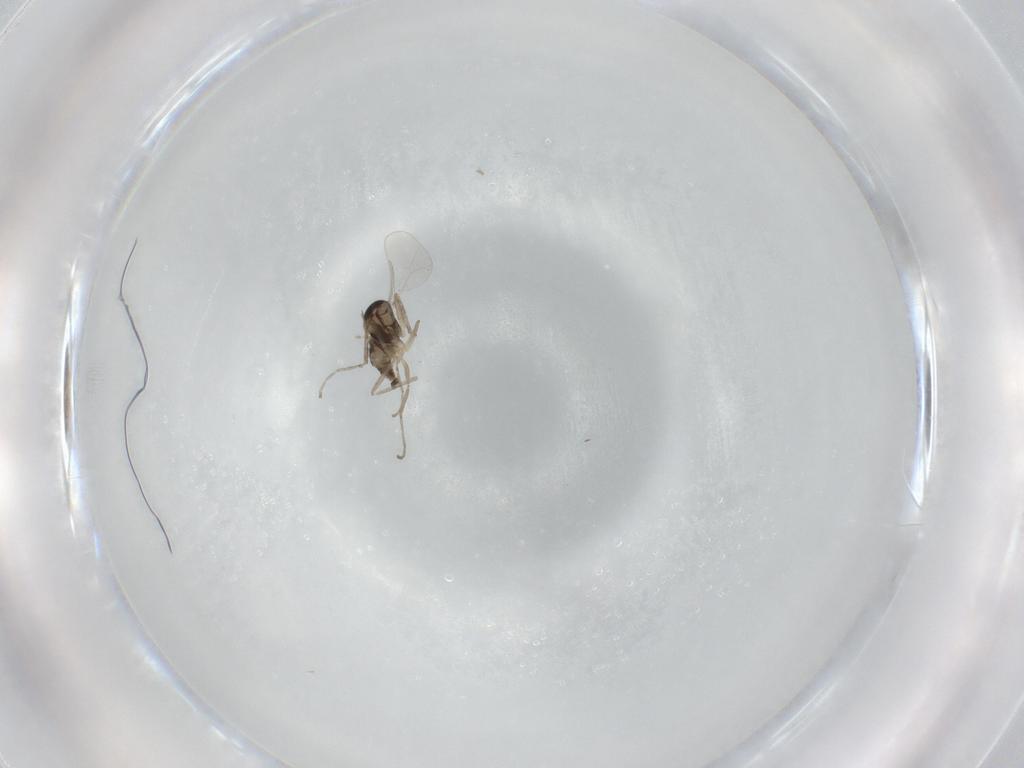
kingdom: Animalia
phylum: Arthropoda
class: Insecta
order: Diptera
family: Cecidomyiidae
